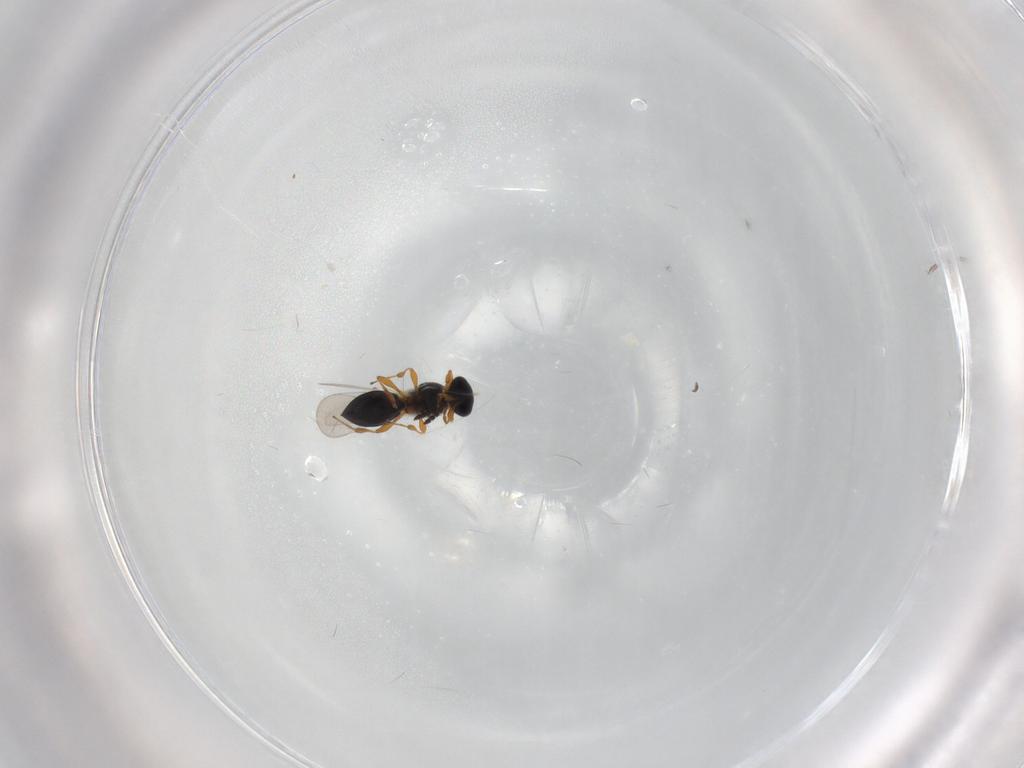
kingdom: Animalia
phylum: Arthropoda
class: Insecta
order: Hymenoptera
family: Platygastridae
